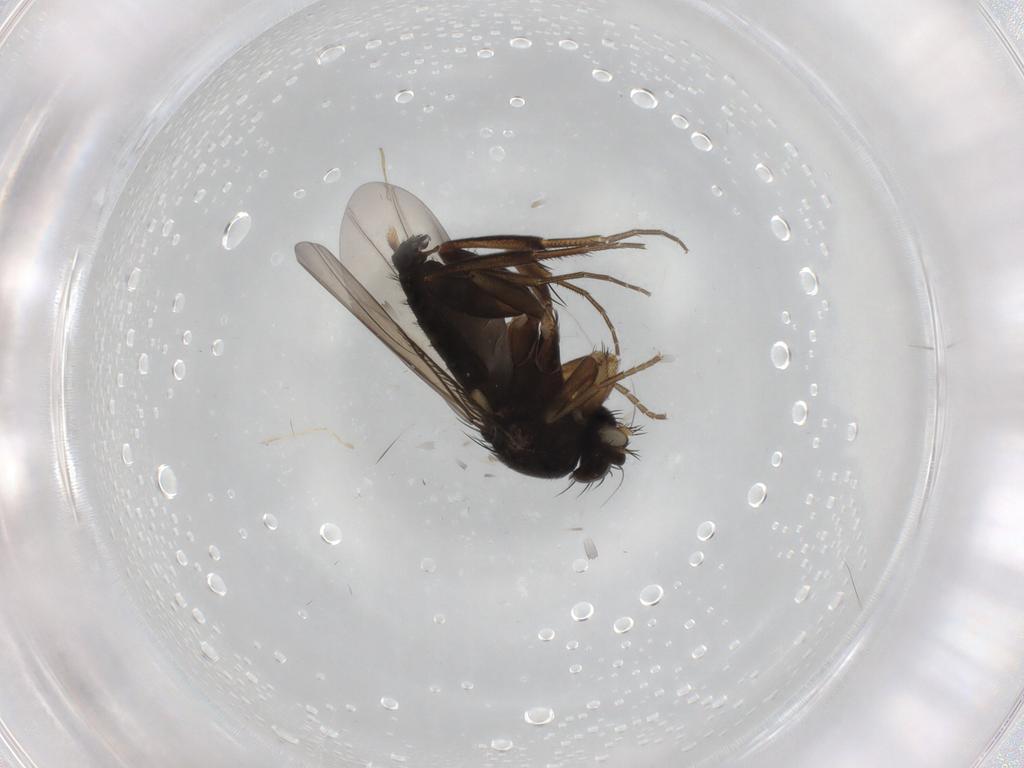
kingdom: Animalia
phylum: Arthropoda
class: Insecta
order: Diptera
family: Phoridae
